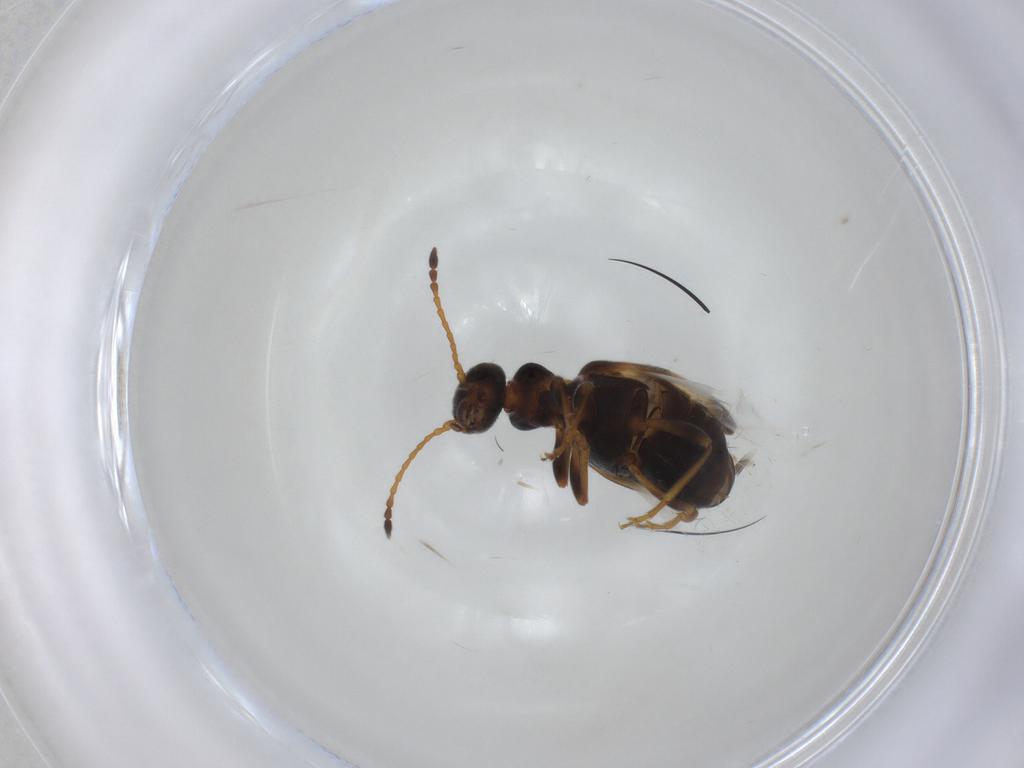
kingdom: Animalia
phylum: Arthropoda
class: Insecta
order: Coleoptera
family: Anthicidae
